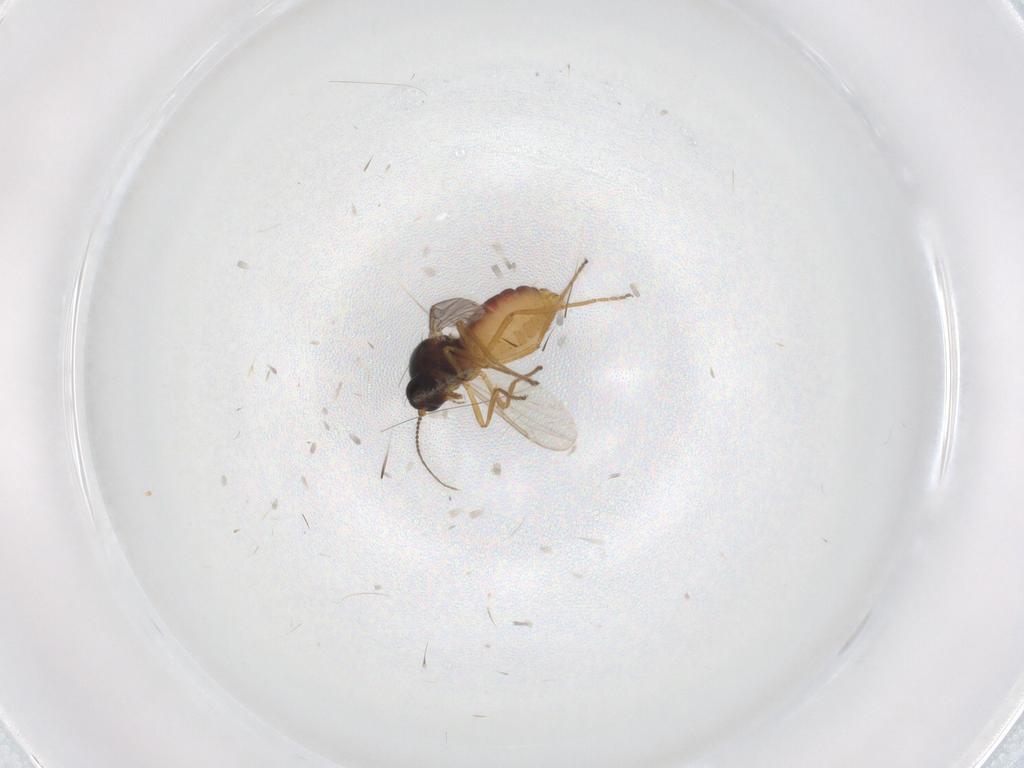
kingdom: Animalia
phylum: Arthropoda
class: Insecta
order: Diptera
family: Ceratopogonidae
